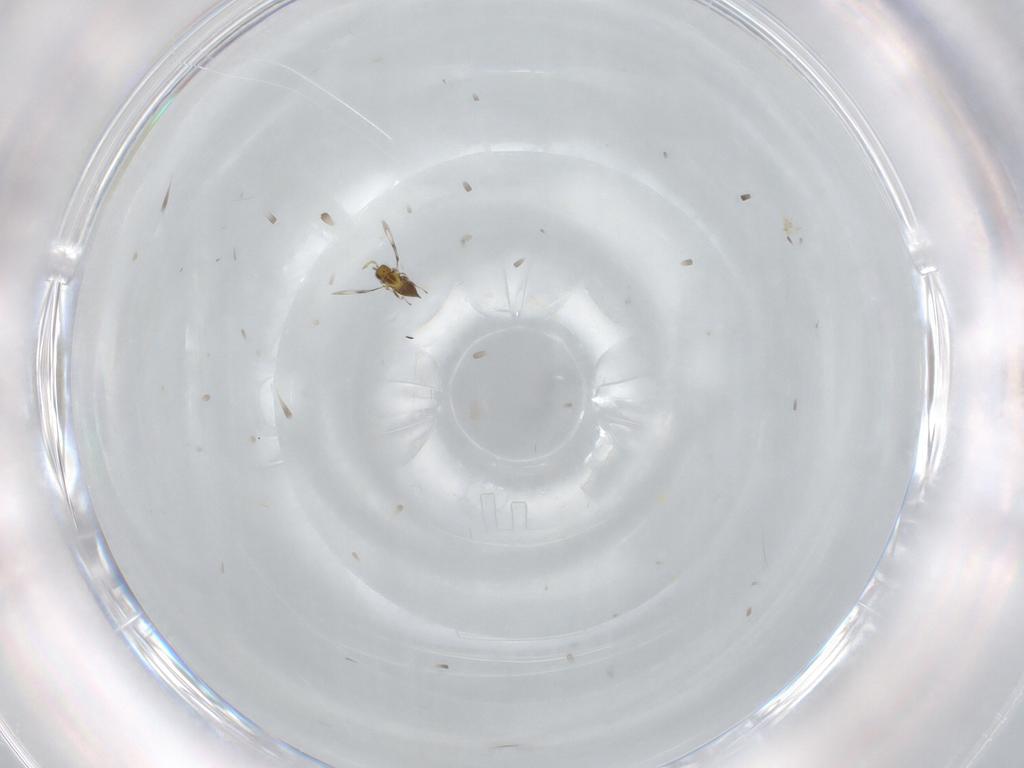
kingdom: Animalia
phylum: Arthropoda
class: Insecta
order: Hymenoptera
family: Trichogrammatidae
